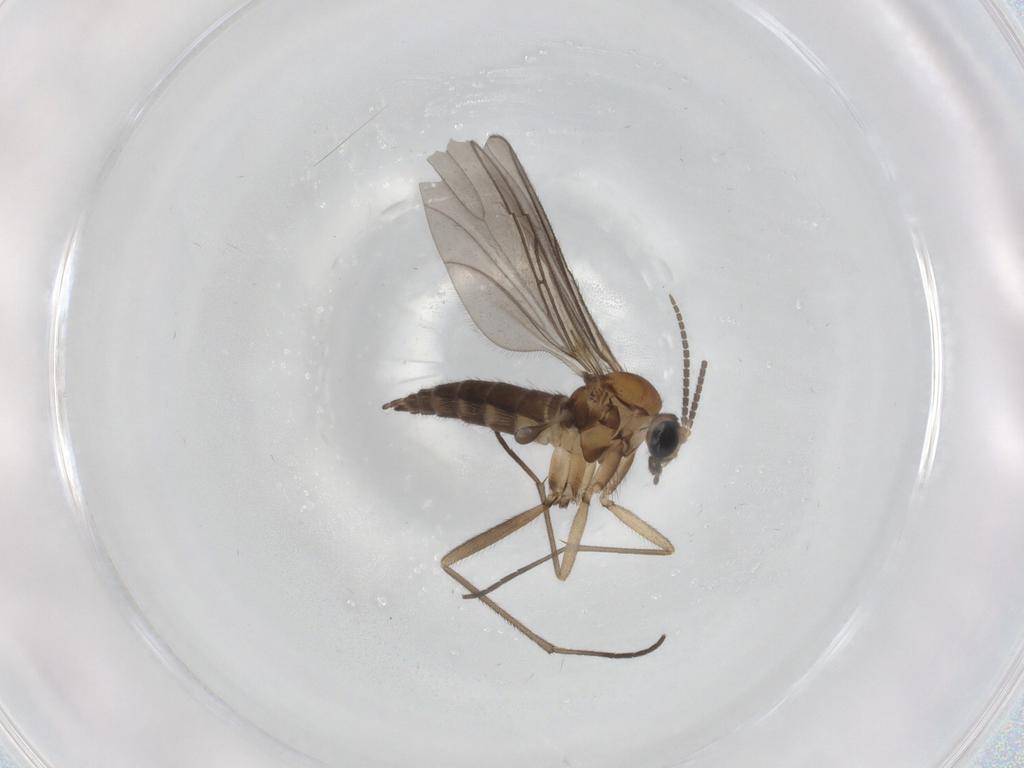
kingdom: Animalia
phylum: Arthropoda
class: Insecta
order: Diptera
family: Sciaridae
